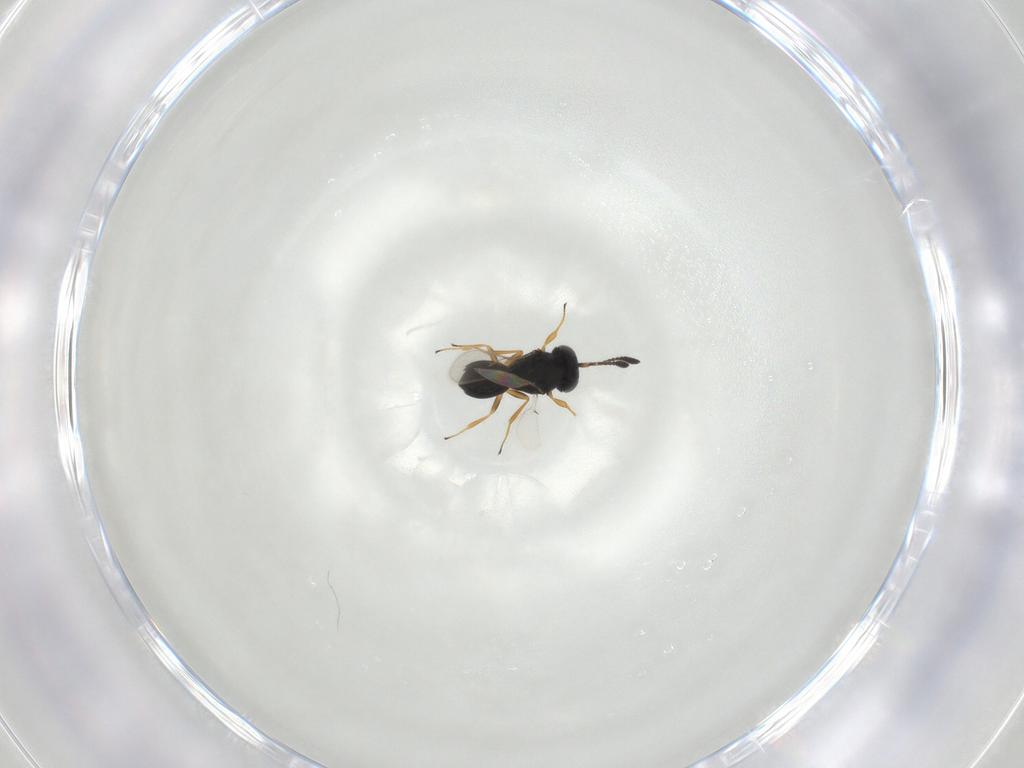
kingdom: Animalia
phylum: Arthropoda
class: Insecta
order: Hymenoptera
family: Scelionidae
